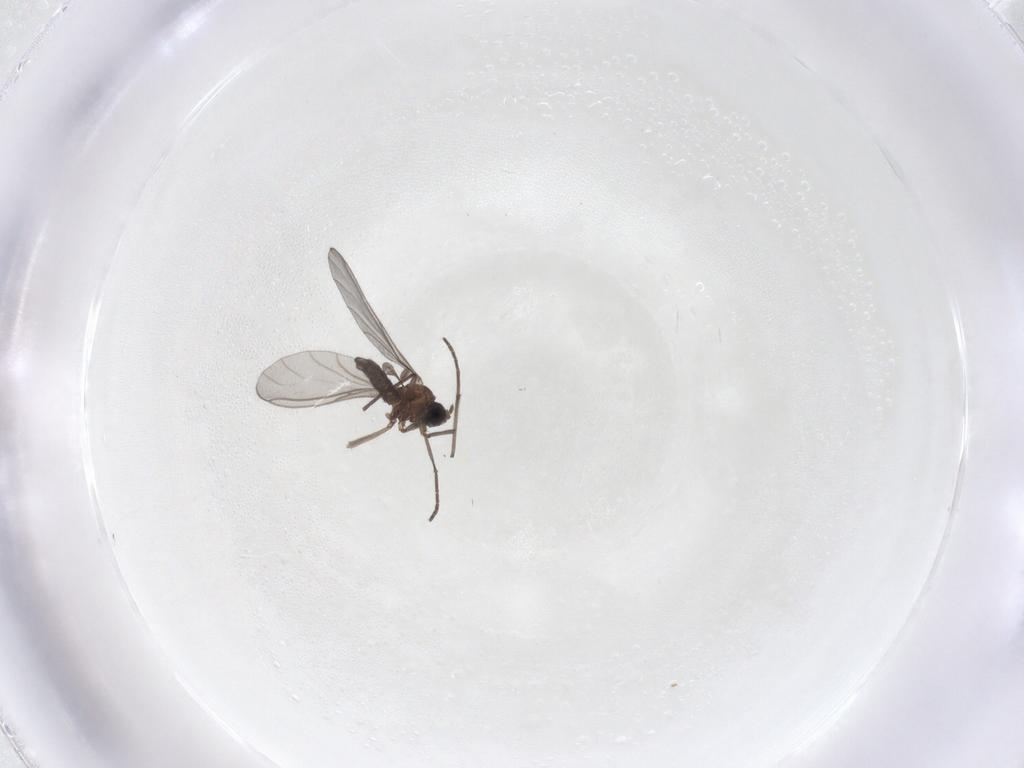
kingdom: Animalia
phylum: Arthropoda
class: Insecta
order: Diptera
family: Sciaridae
